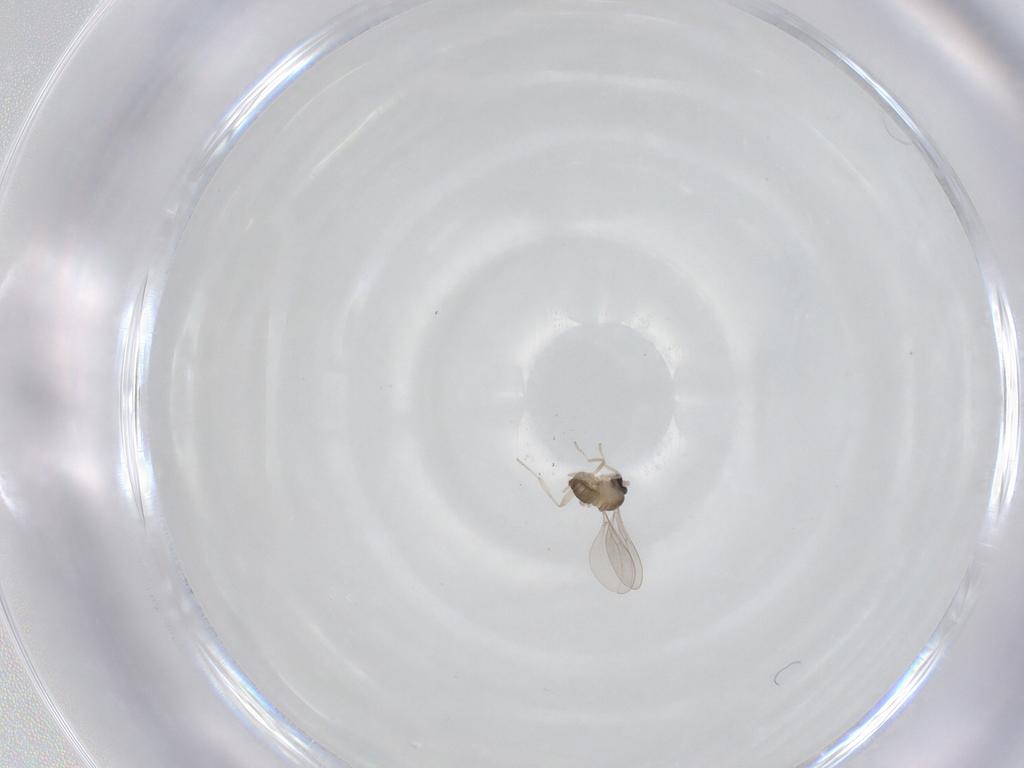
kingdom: Animalia
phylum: Arthropoda
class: Insecta
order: Diptera
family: Cecidomyiidae
